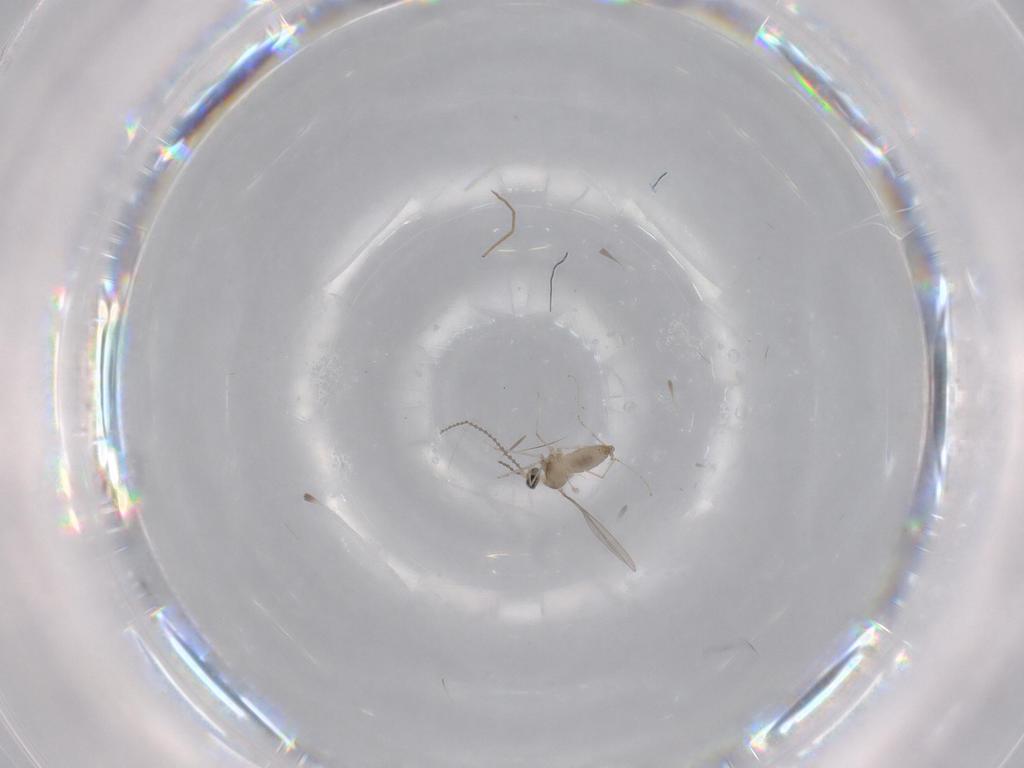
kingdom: Animalia
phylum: Arthropoda
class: Insecta
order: Diptera
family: Cecidomyiidae
